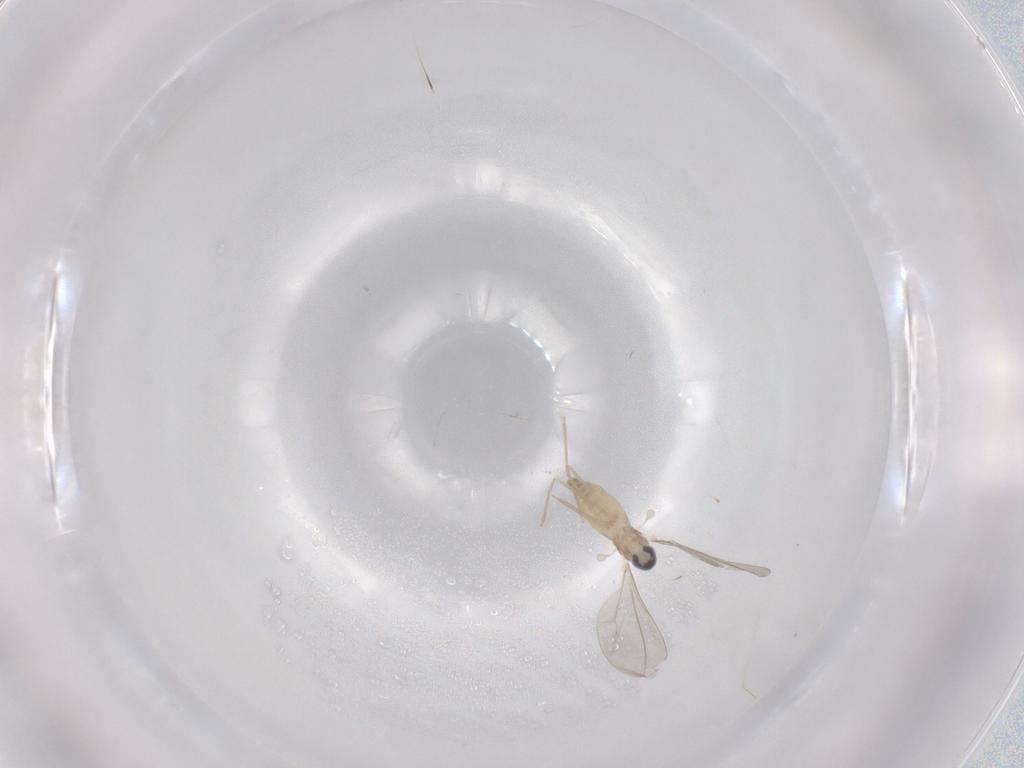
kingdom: Animalia
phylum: Arthropoda
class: Insecta
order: Diptera
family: Cecidomyiidae
